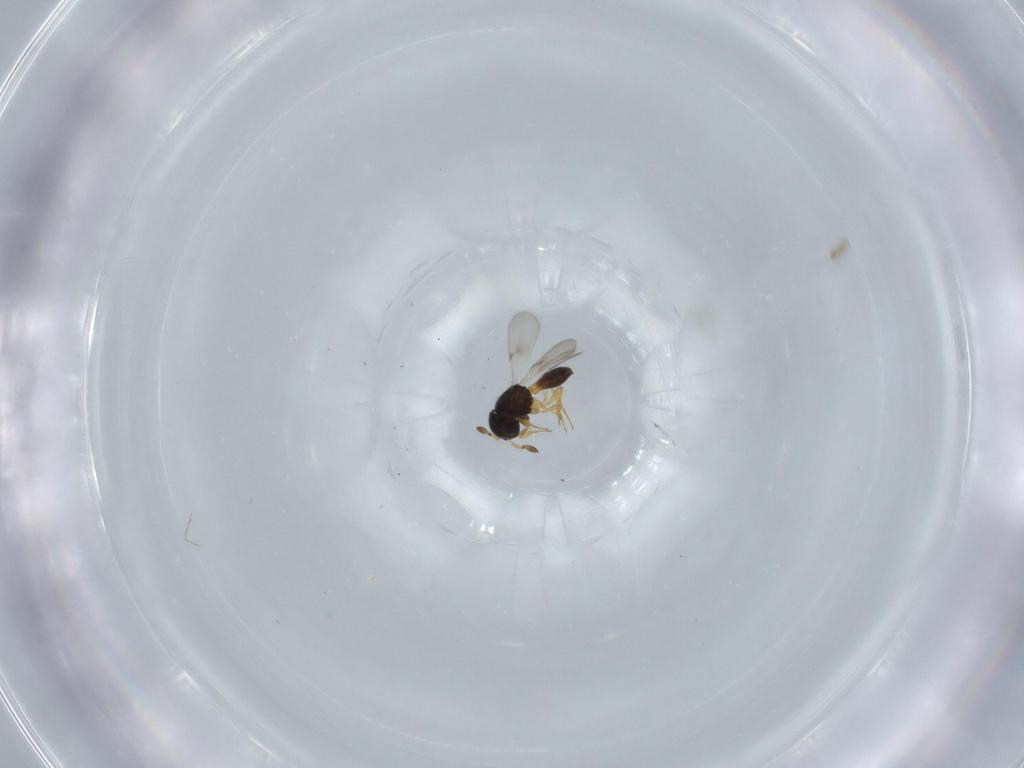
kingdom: Animalia
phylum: Arthropoda
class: Insecta
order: Hymenoptera
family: Scelionidae
